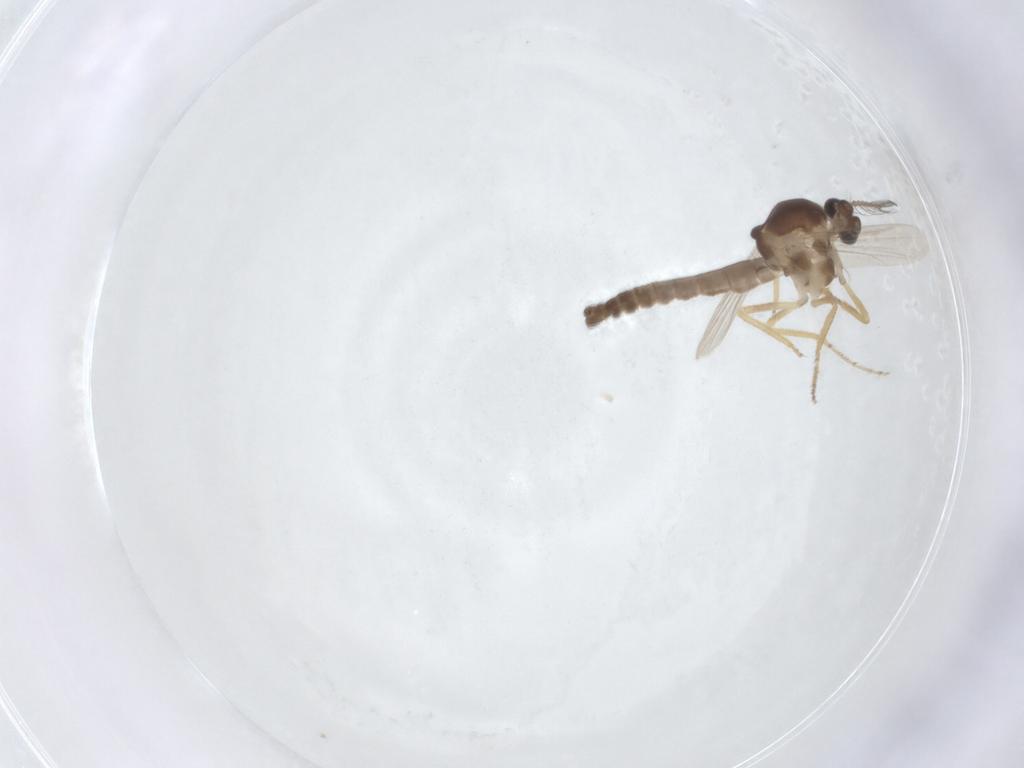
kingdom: Animalia
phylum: Arthropoda
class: Insecta
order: Diptera
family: Ceratopogonidae
